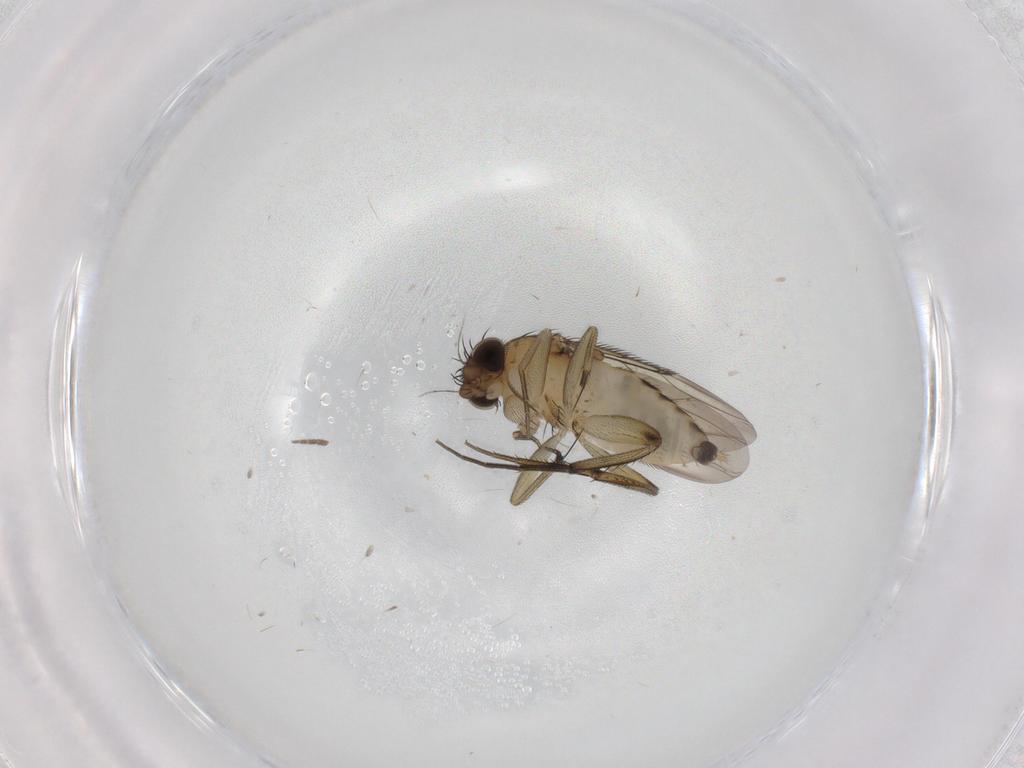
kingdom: Animalia
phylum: Arthropoda
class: Insecta
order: Diptera
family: Phoridae
